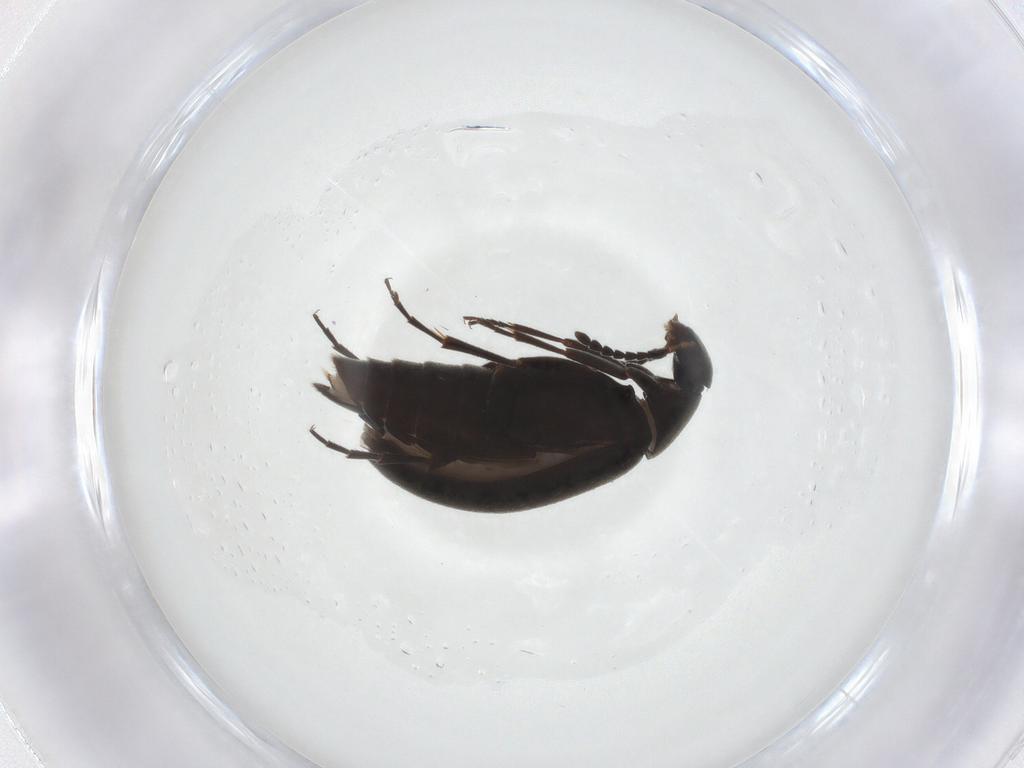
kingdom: Animalia
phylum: Arthropoda
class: Insecta
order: Coleoptera
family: Scraptiidae
